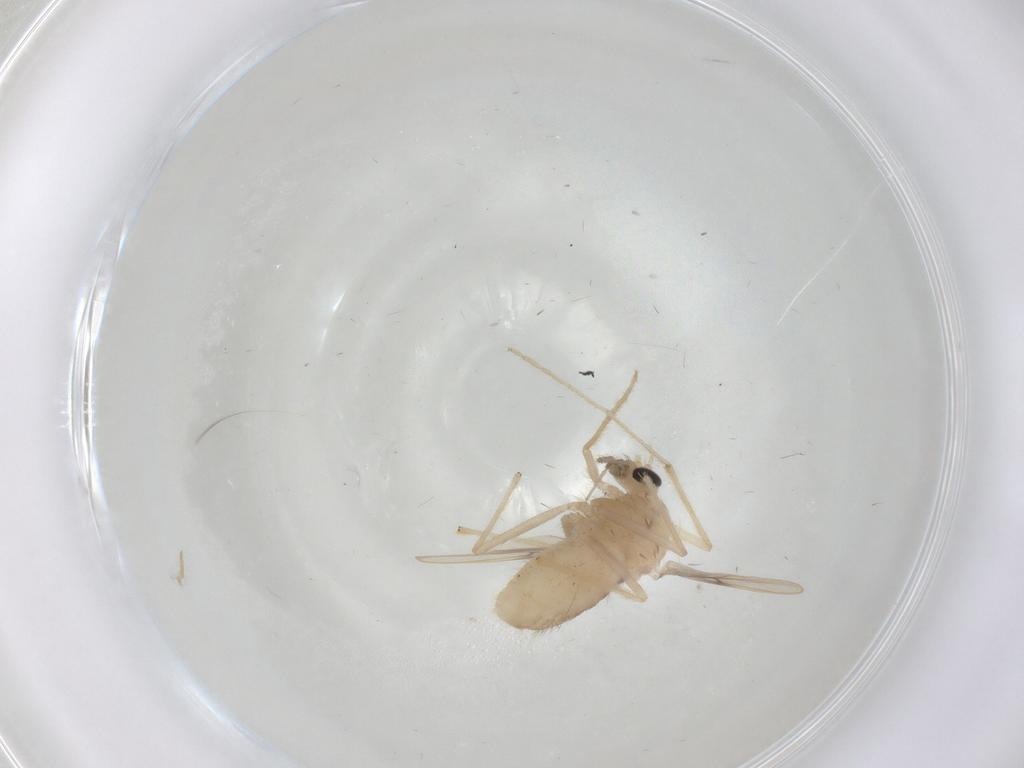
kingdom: Animalia
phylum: Arthropoda
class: Insecta
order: Diptera
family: Chironomidae
